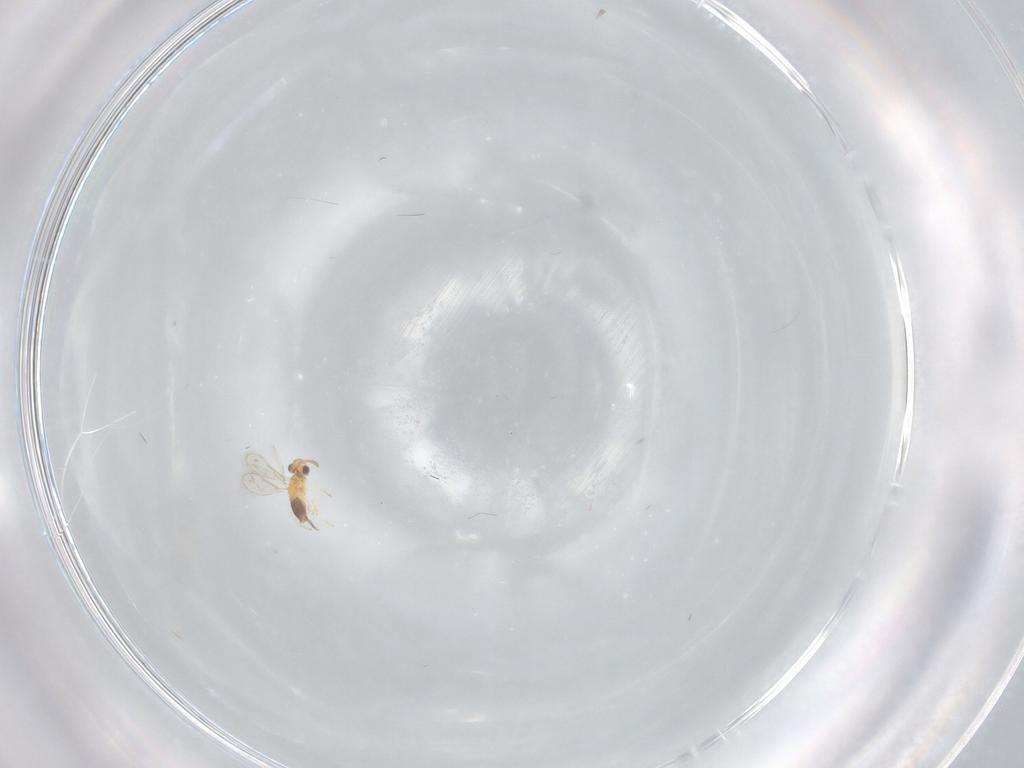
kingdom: Animalia
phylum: Arthropoda
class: Insecta
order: Hymenoptera
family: Aphelinidae
